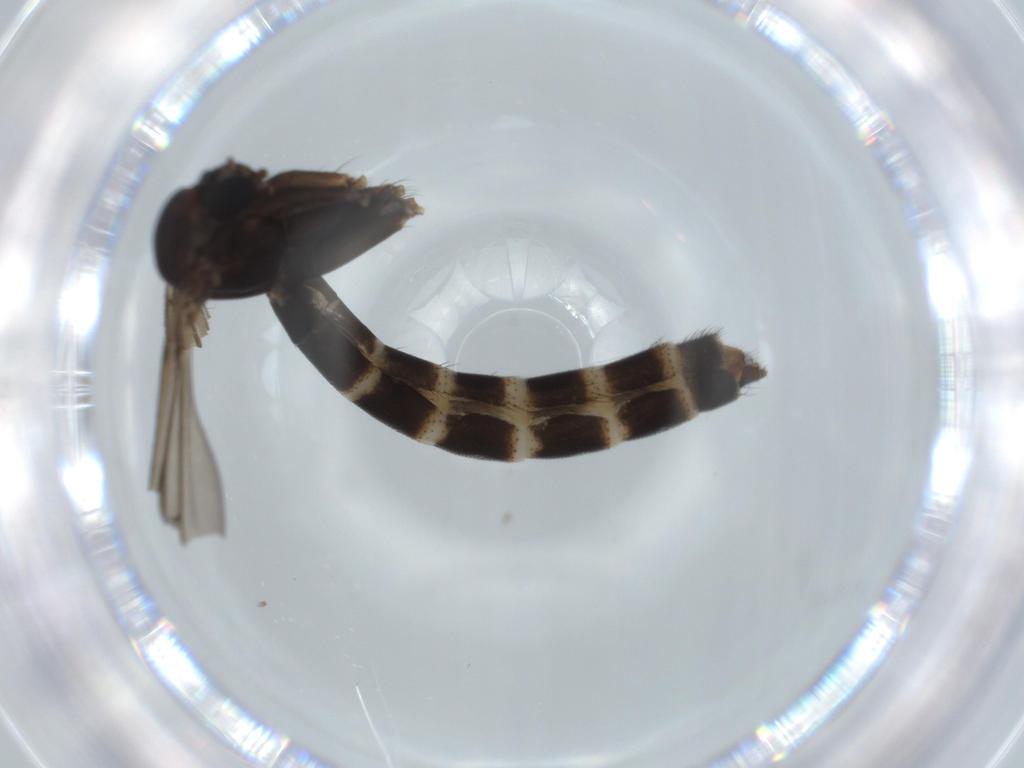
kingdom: Animalia
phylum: Arthropoda
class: Insecta
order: Diptera
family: Ditomyiidae
